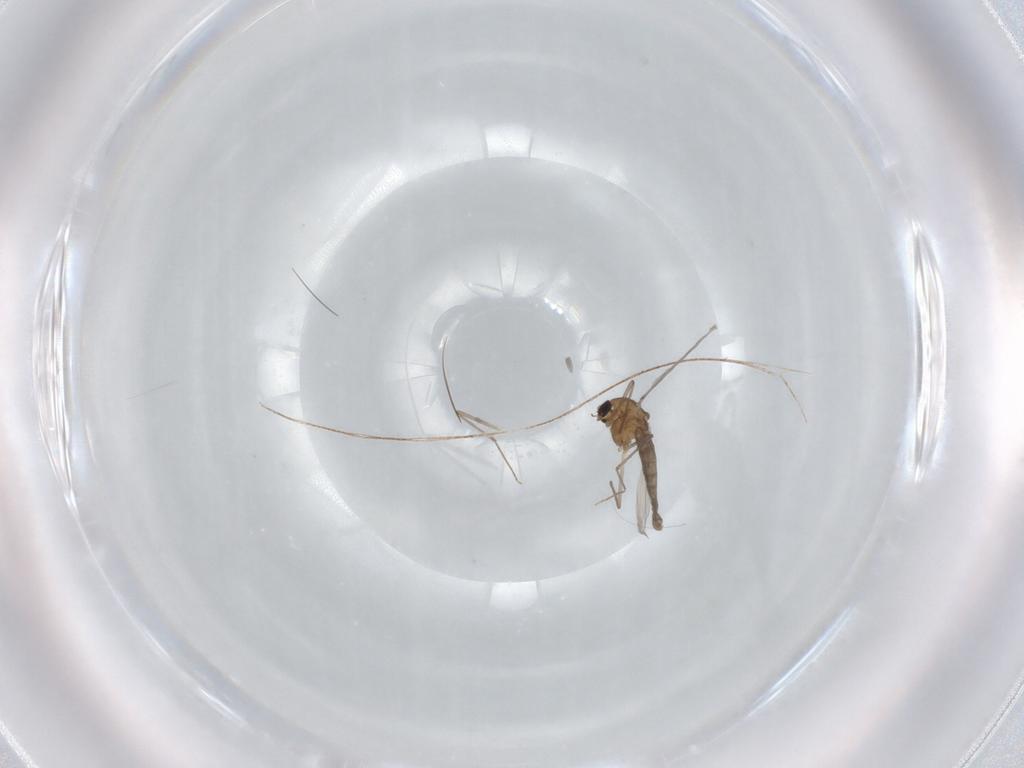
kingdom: Animalia
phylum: Arthropoda
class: Insecta
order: Diptera
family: Chironomidae
